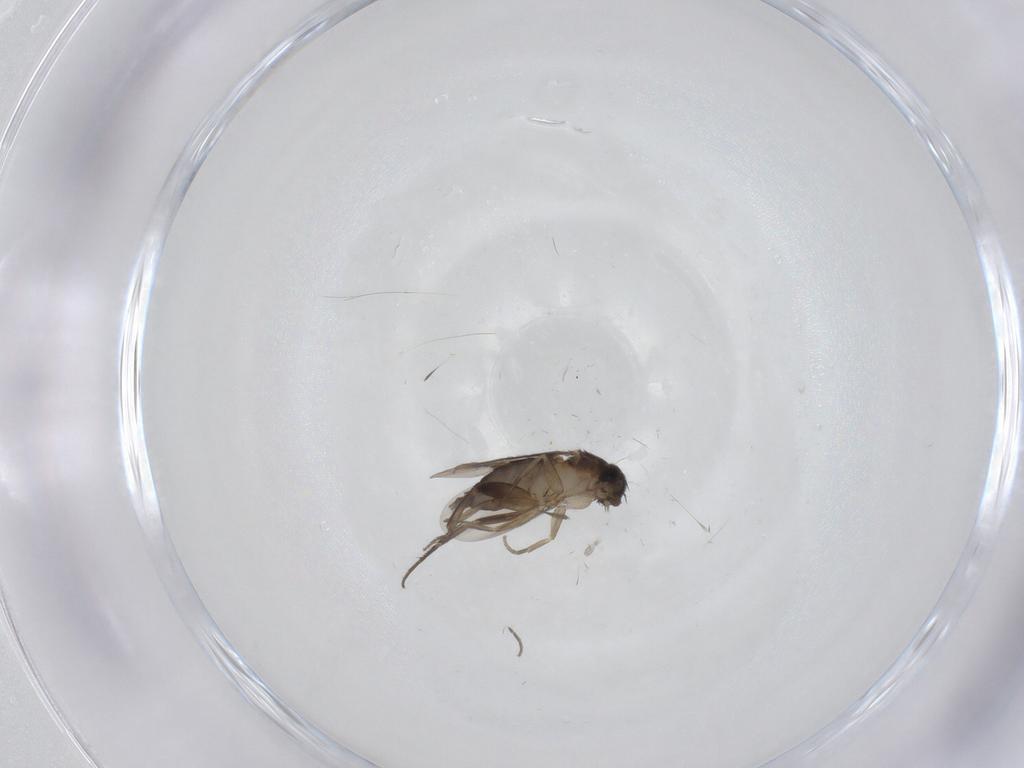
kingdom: Animalia
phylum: Arthropoda
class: Insecta
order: Diptera
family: Phoridae
